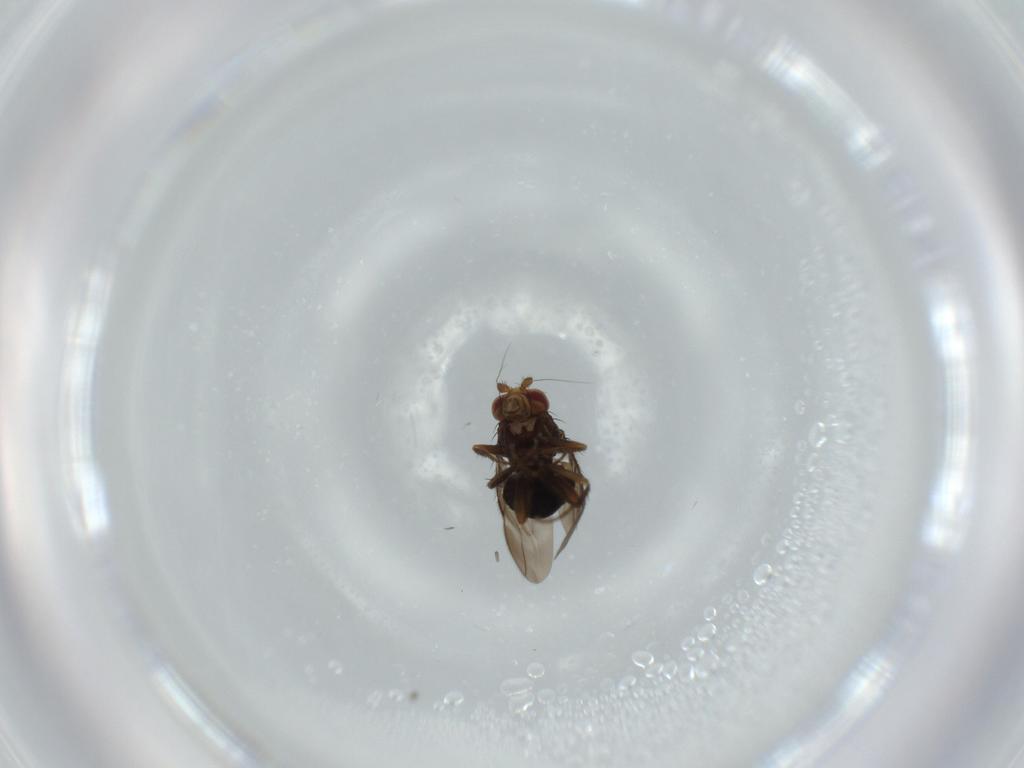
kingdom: Animalia
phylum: Arthropoda
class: Insecta
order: Diptera
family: Sphaeroceridae
